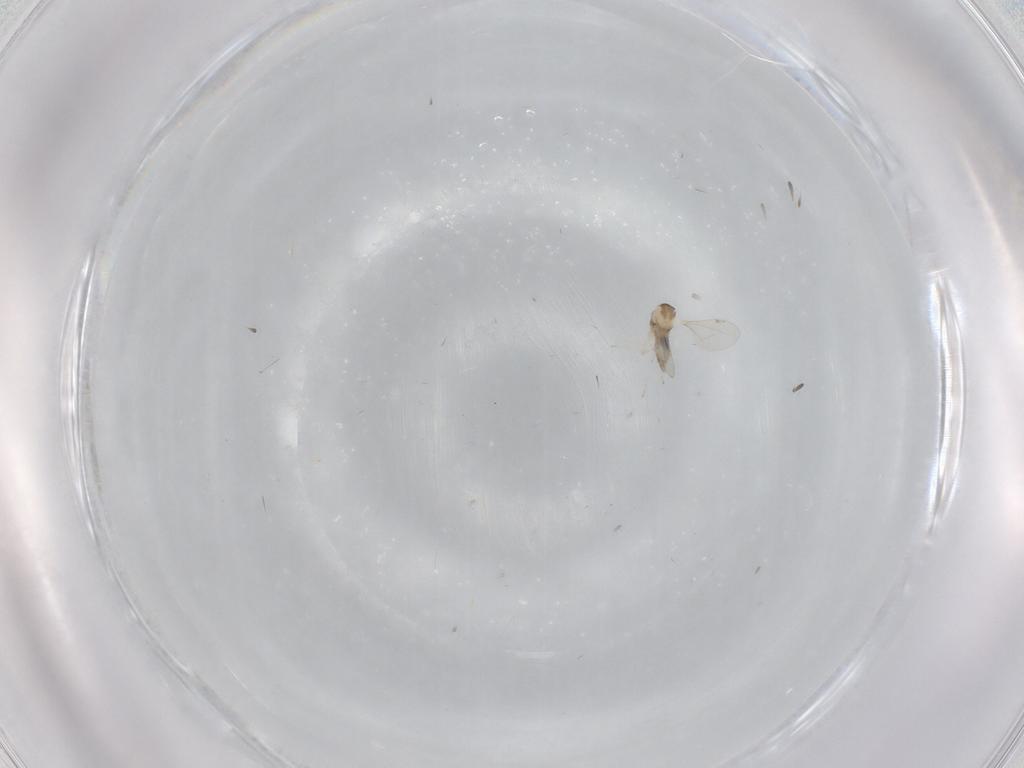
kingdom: Animalia
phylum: Arthropoda
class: Insecta
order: Diptera
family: Cecidomyiidae
